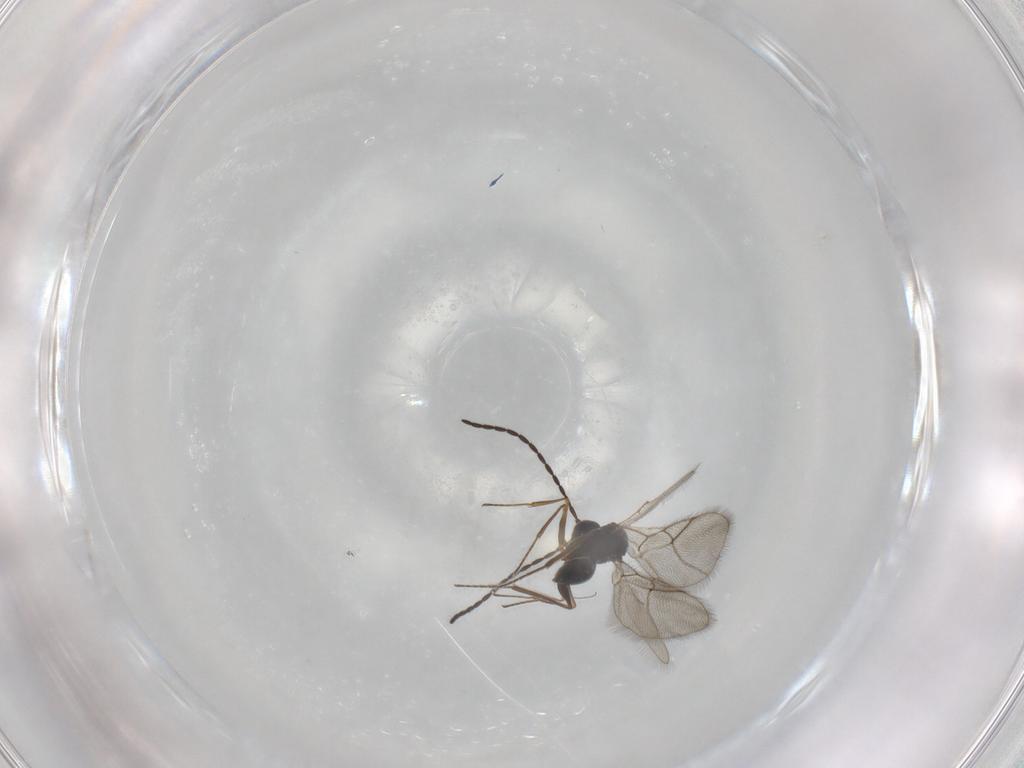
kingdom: Animalia
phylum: Arthropoda
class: Insecta
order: Hymenoptera
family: Figitidae
